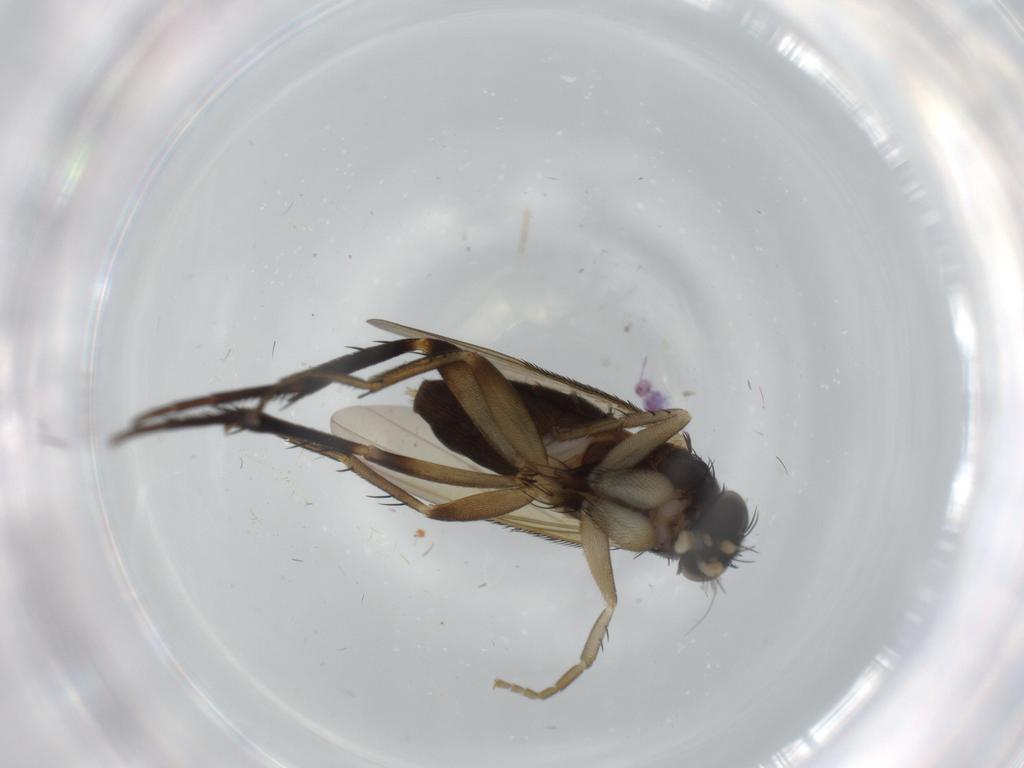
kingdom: Animalia
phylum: Arthropoda
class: Insecta
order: Diptera
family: Phoridae
